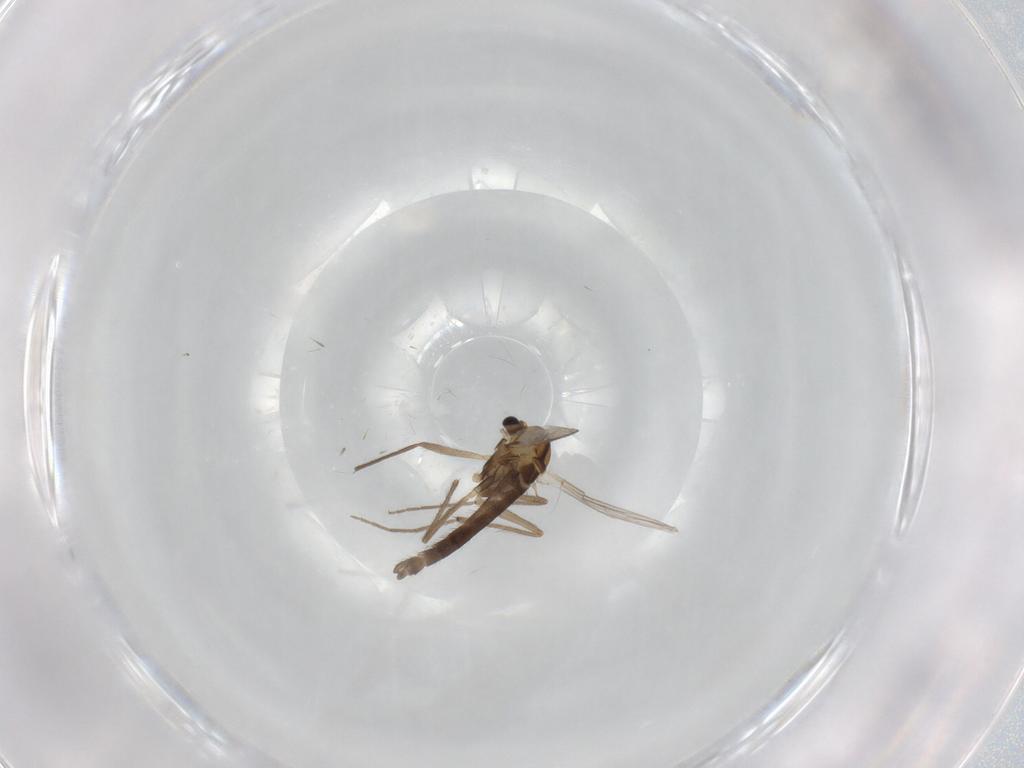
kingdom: Animalia
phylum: Arthropoda
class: Insecta
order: Diptera
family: Chironomidae
